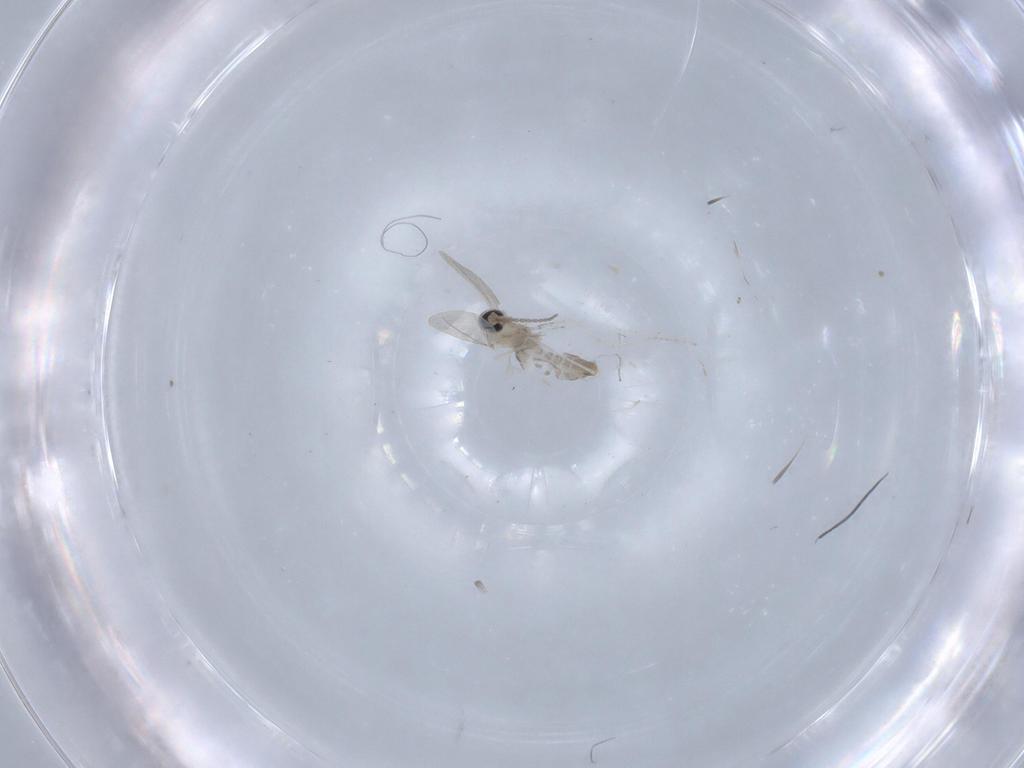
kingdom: Animalia
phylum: Arthropoda
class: Insecta
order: Diptera
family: Cecidomyiidae
